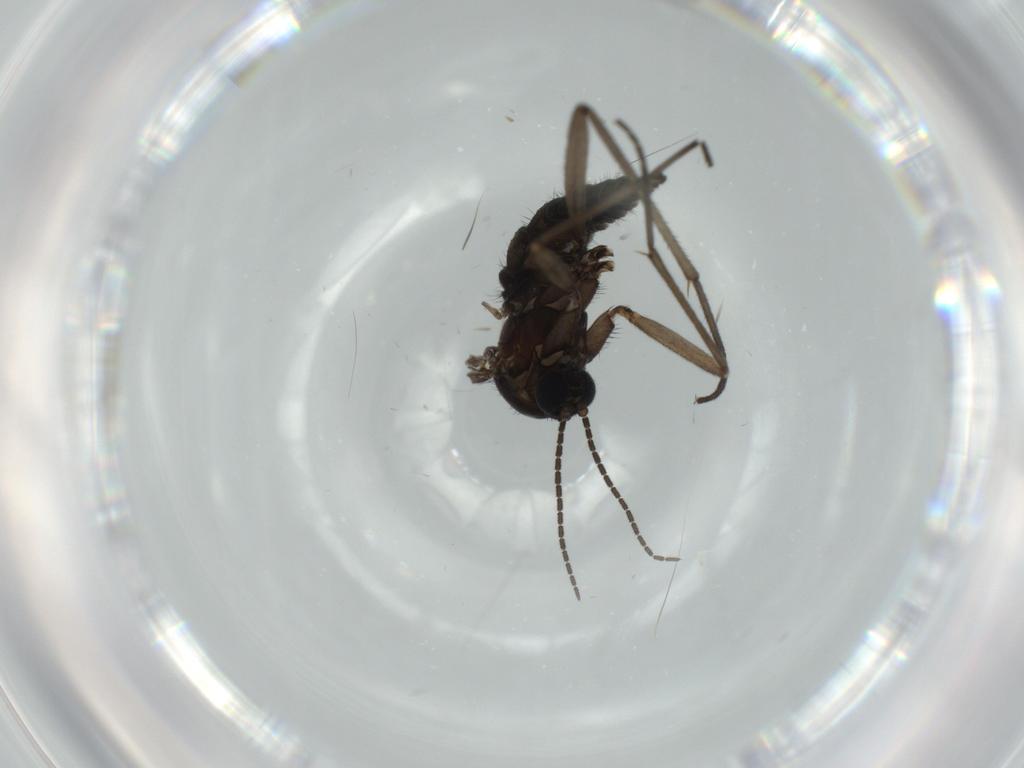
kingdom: Animalia
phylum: Arthropoda
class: Insecta
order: Diptera
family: Sciaridae
